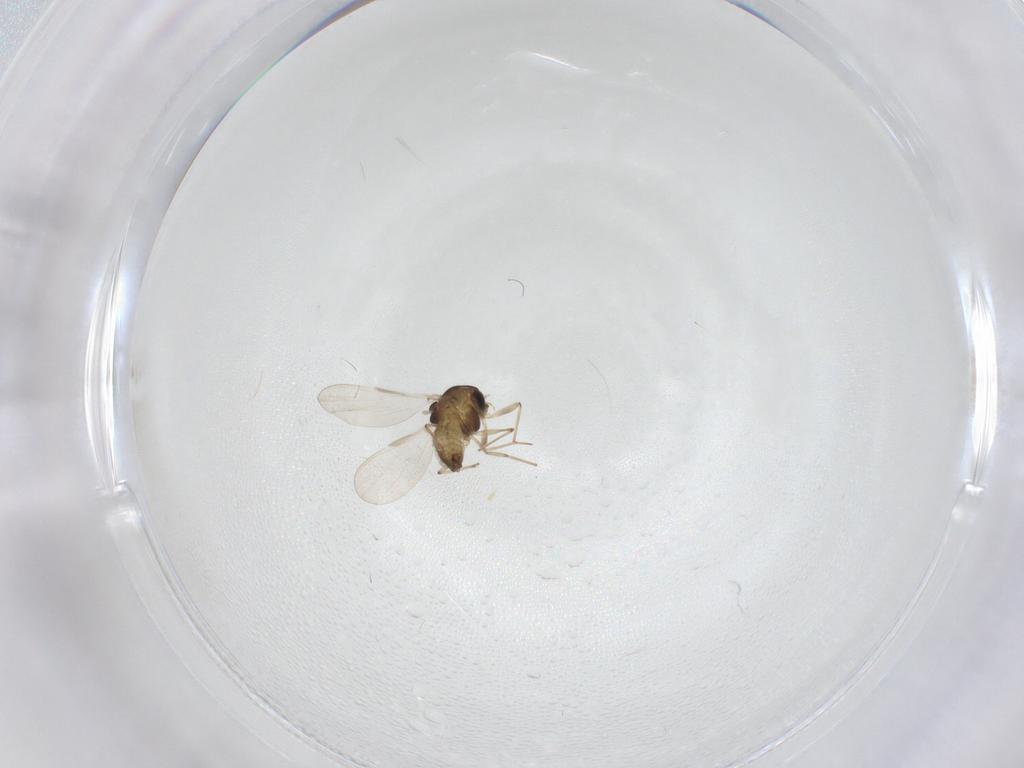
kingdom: Animalia
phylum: Arthropoda
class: Insecta
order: Diptera
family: Chironomidae
